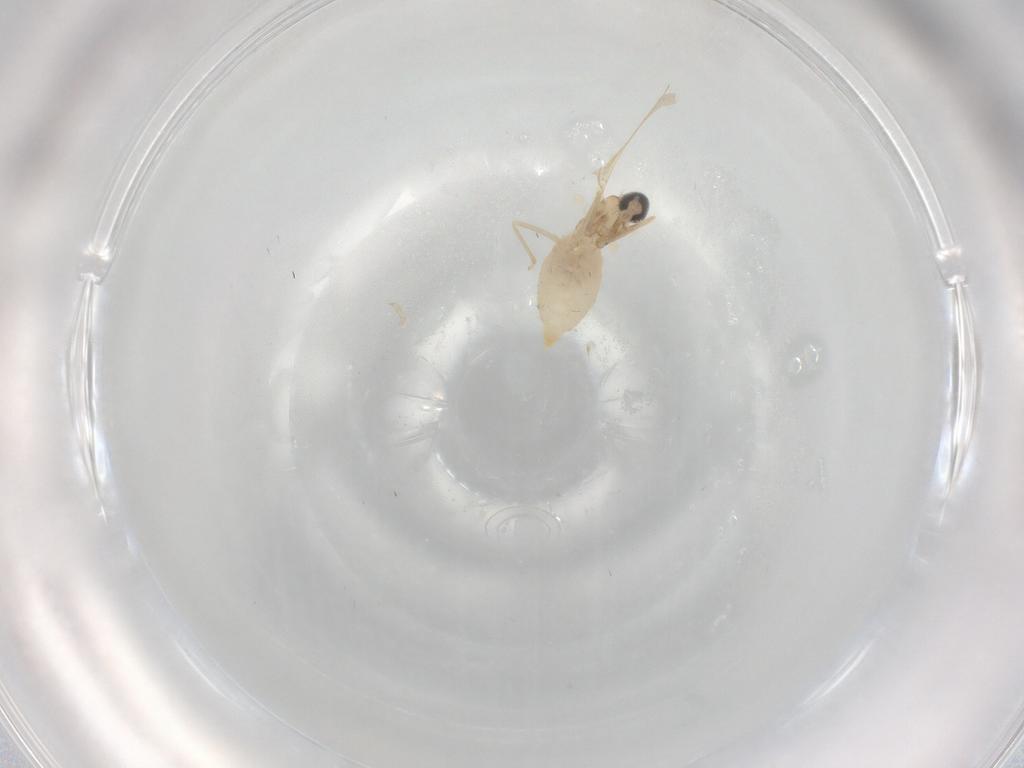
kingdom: Animalia
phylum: Arthropoda
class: Insecta
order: Diptera
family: Cecidomyiidae
